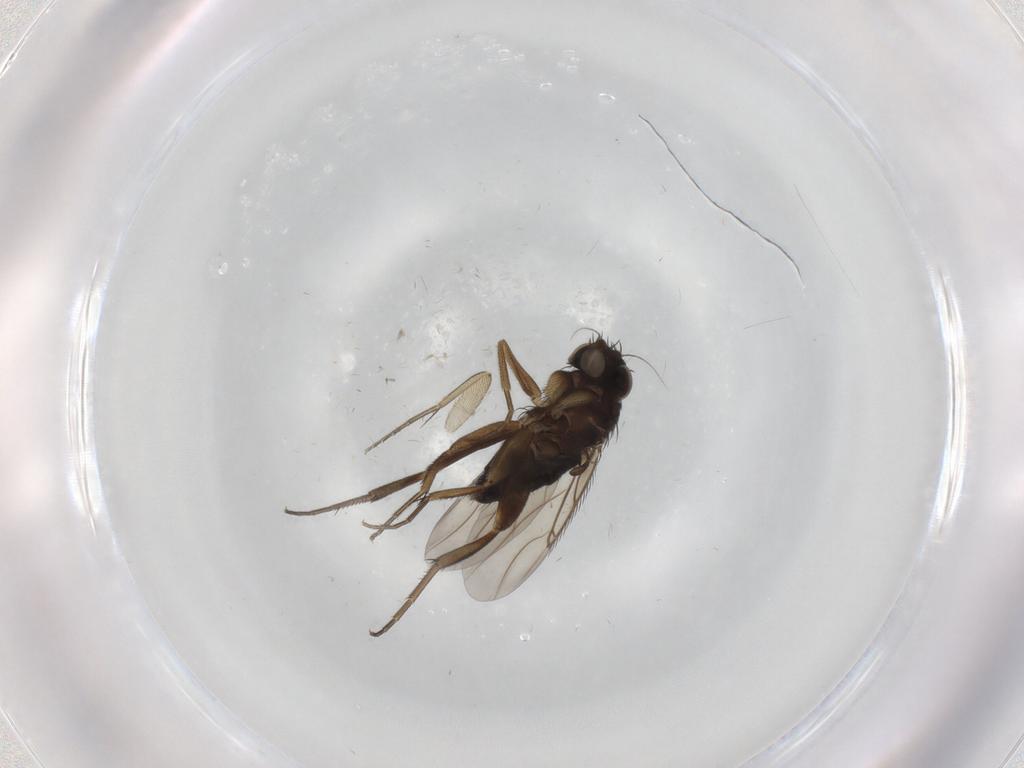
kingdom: Animalia
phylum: Arthropoda
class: Insecta
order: Diptera
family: Phoridae
